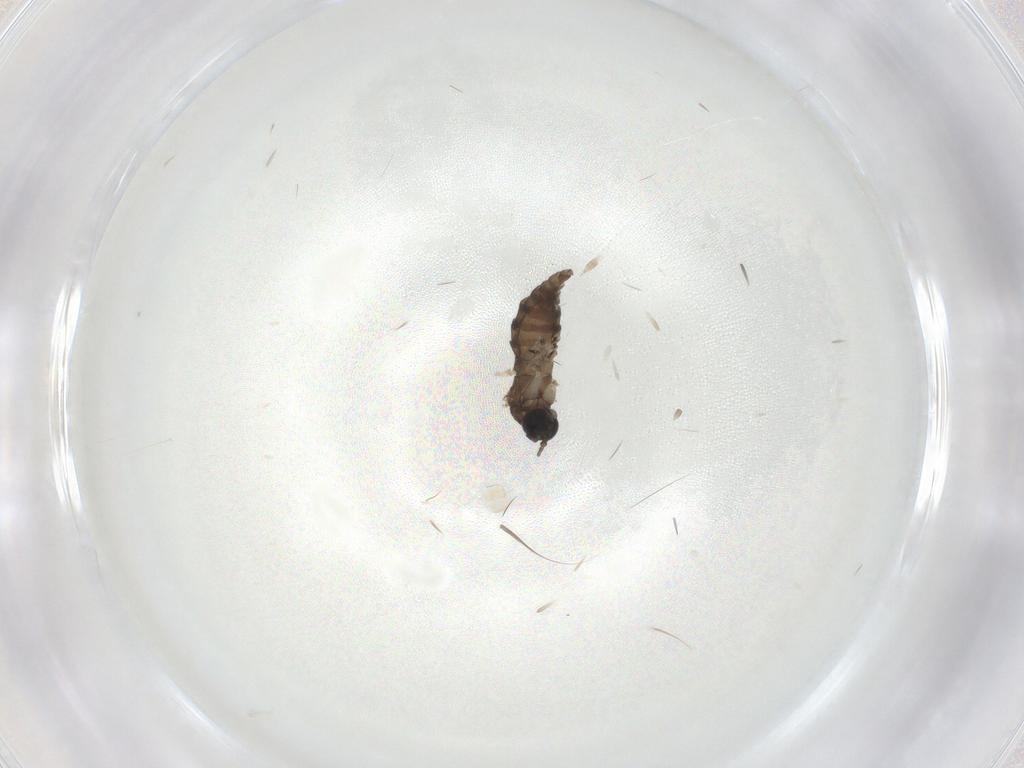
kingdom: Animalia
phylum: Arthropoda
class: Insecta
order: Diptera
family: Sciaridae
